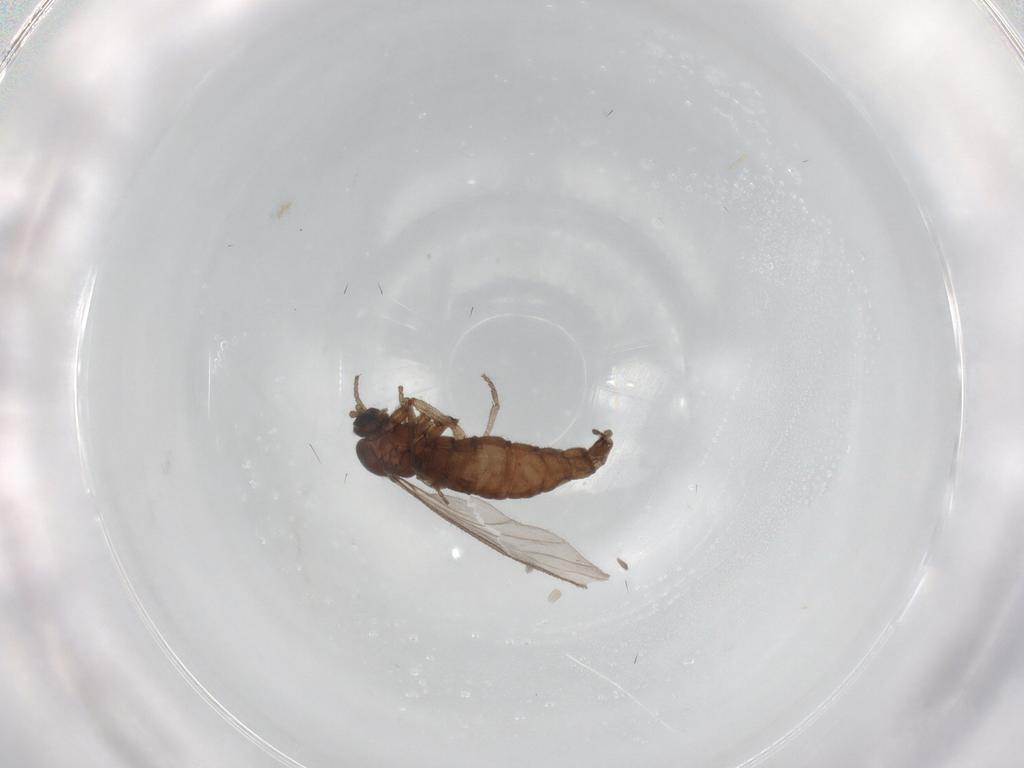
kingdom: Animalia
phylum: Arthropoda
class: Insecta
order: Diptera
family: Sciaridae
